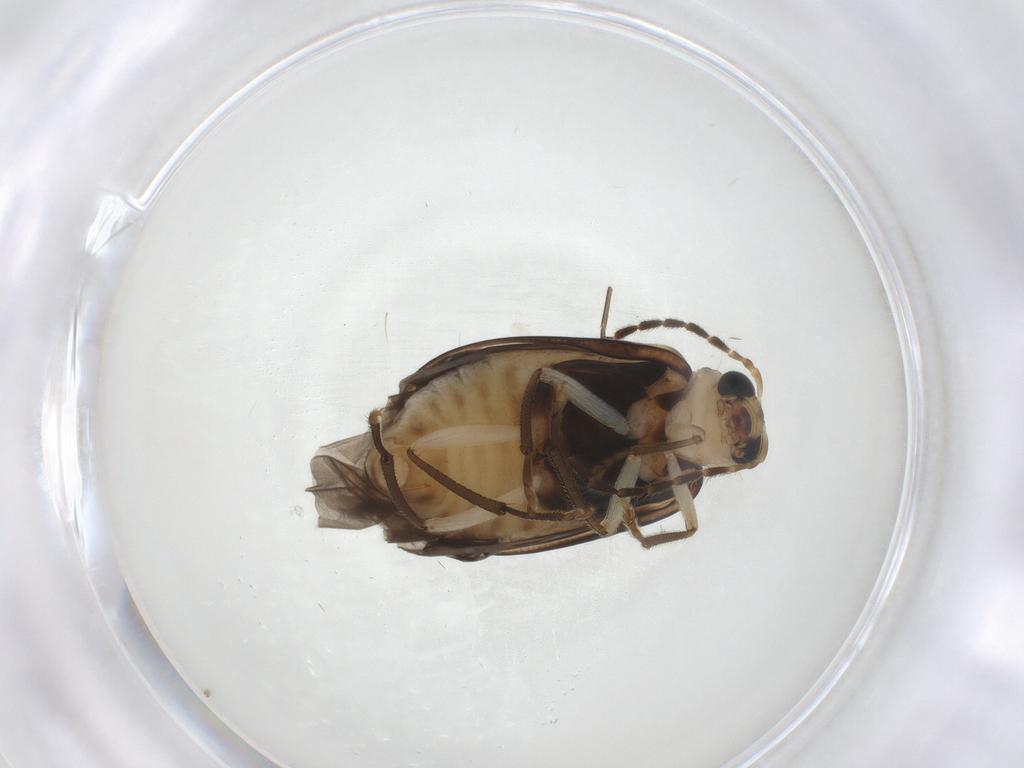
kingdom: Animalia
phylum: Arthropoda
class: Insecta
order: Coleoptera
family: Chrysomelidae
